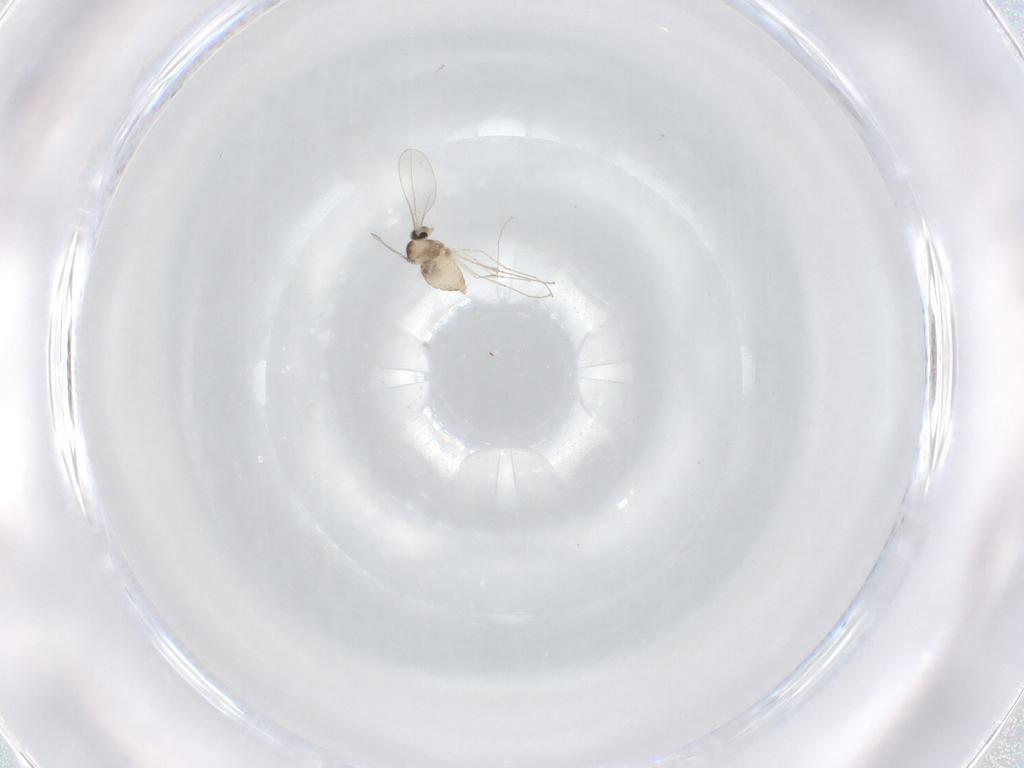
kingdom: Animalia
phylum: Arthropoda
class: Insecta
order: Diptera
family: Cecidomyiidae
